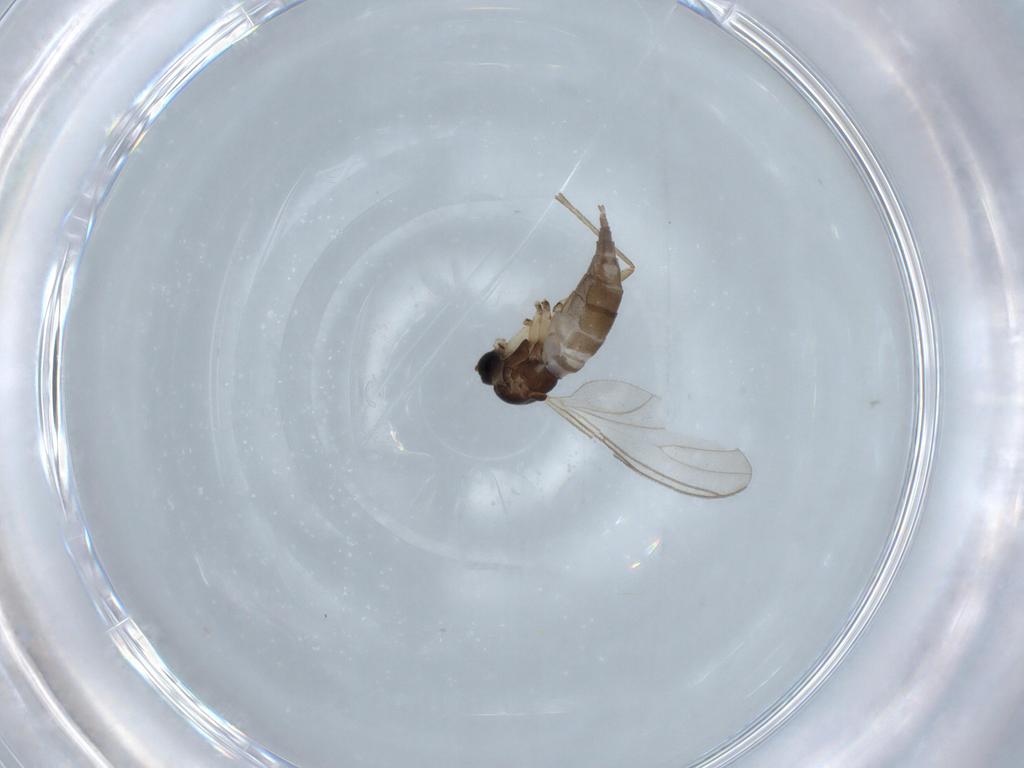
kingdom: Animalia
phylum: Arthropoda
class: Insecta
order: Diptera
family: Sciaridae
